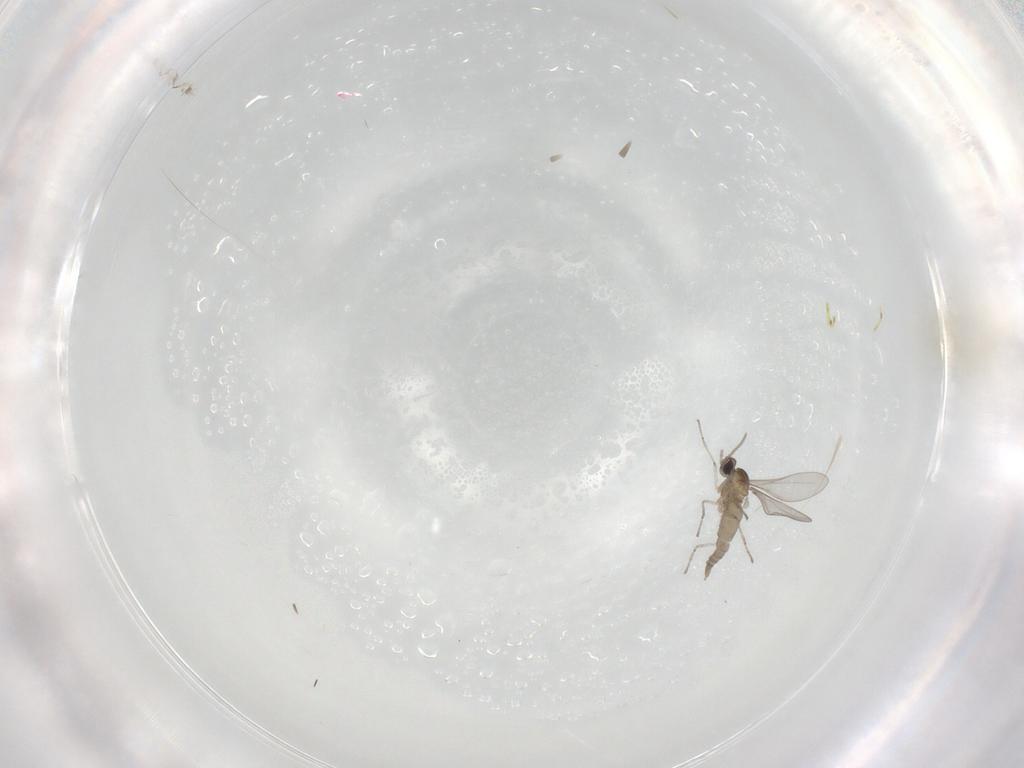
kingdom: Animalia
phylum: Arthropoda
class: Insecta
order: Diptera
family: Cecidomyiidae
